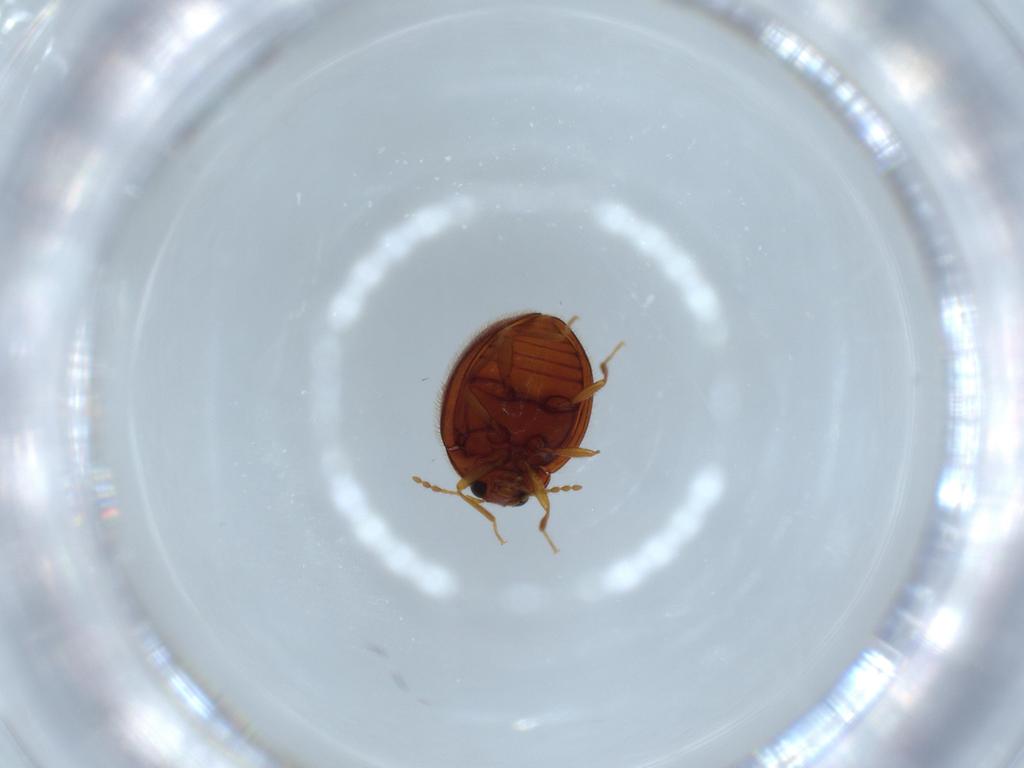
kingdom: Animalia
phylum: Arthropoda
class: Insecta
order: Coleoptera
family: Anamorphidae
